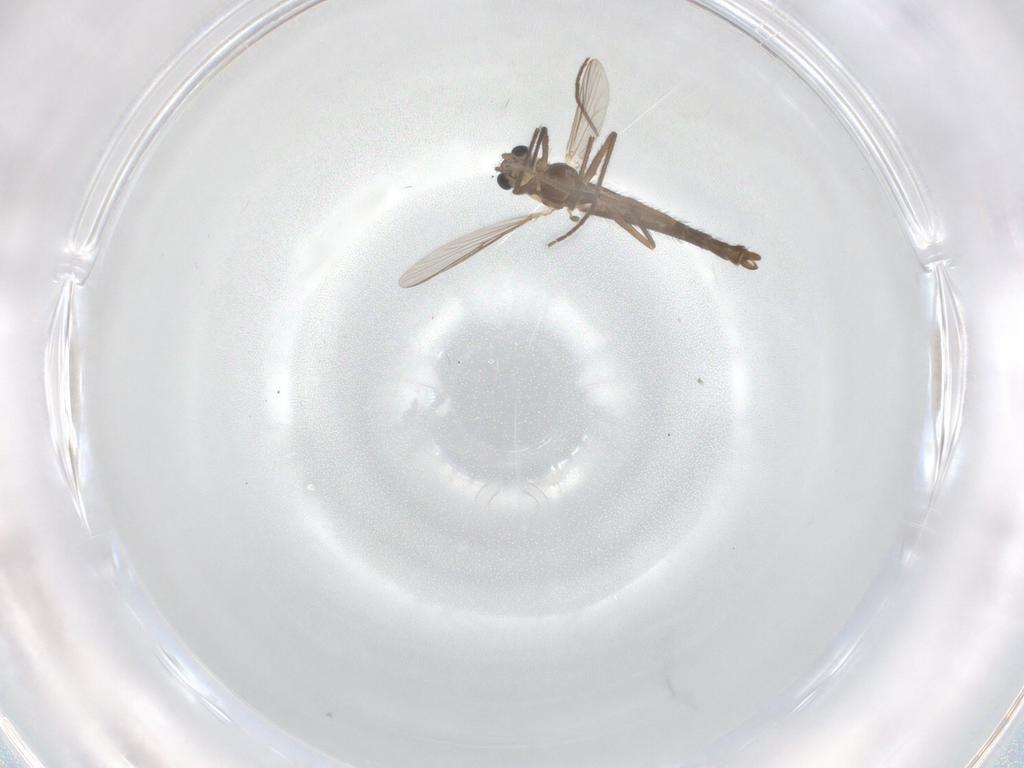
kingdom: Animalia
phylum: Arthropoda
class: Insecta
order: Diptera
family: Chironomidae
